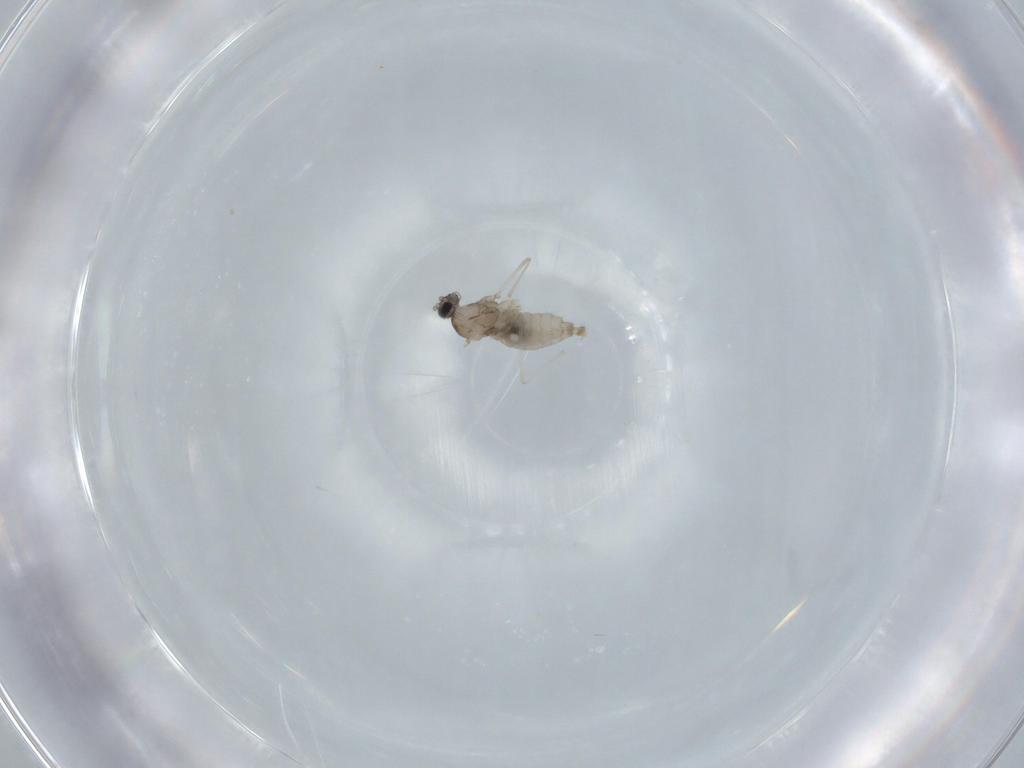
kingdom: Animalia
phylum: Arthropoda
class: Insecta
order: Diptera
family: Cecidomyiidae
